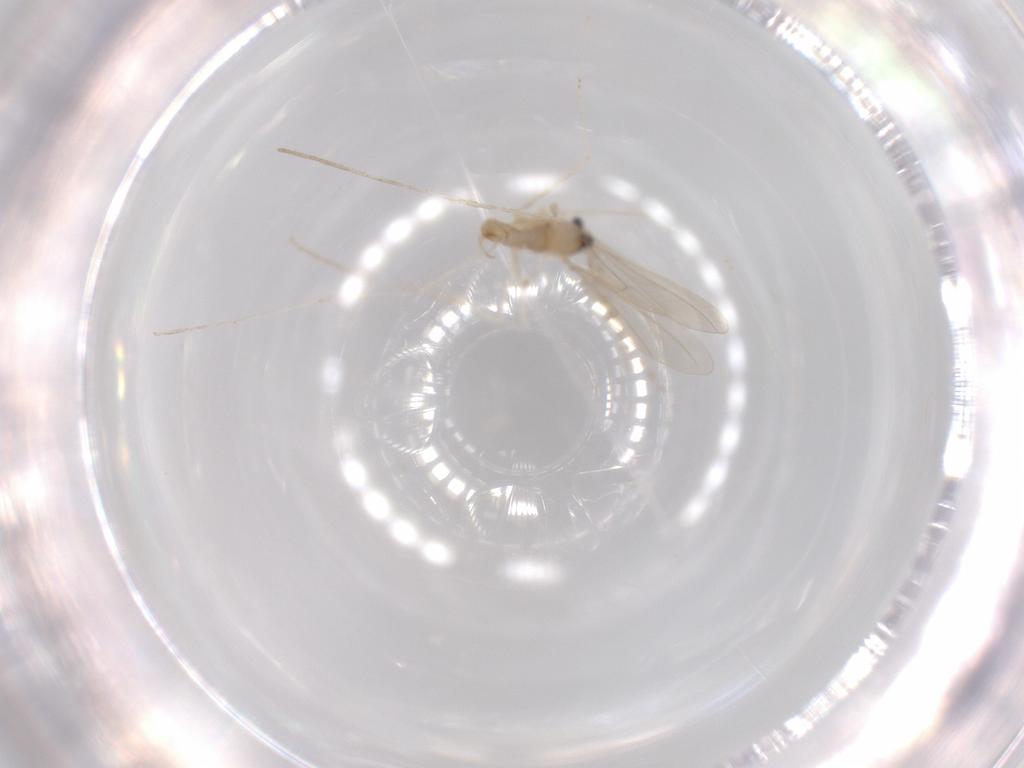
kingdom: Animalia
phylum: Arthropoda
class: Insecta
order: Diptera
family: Cecidomyiidae
